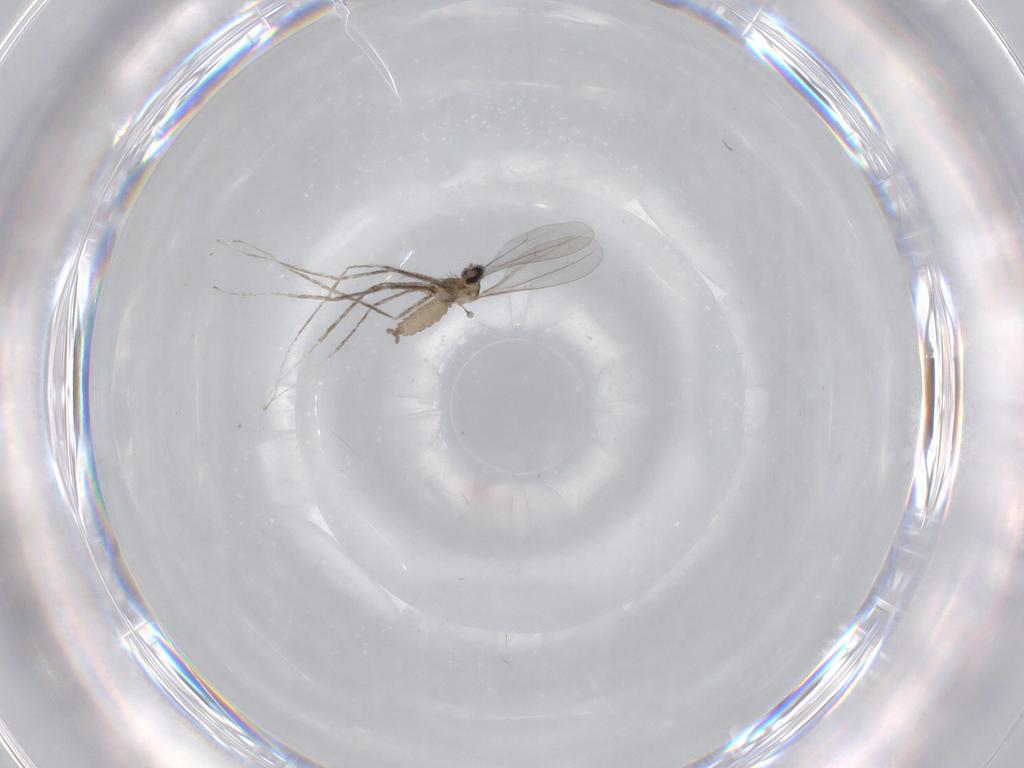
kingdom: Animalia
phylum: Arthropoda
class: Insecta
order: Diptera
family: Cecidomyiidae
